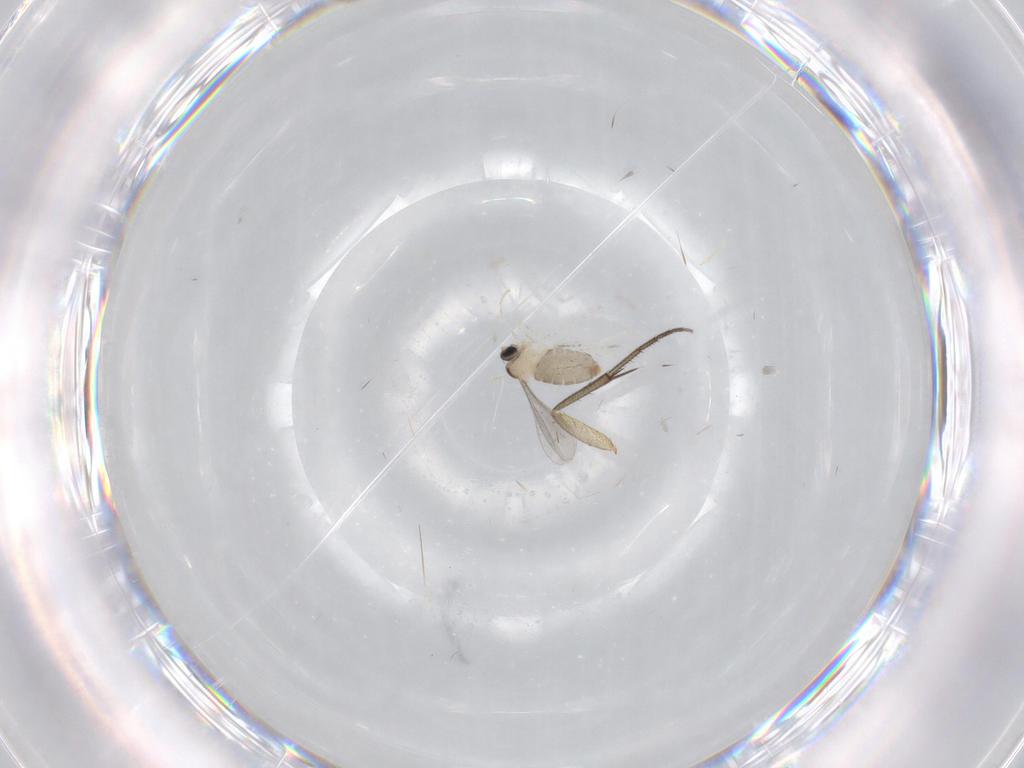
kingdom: Animalia
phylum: Arthropoda
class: Insecta
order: Diptera
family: Cecidomyiidae
